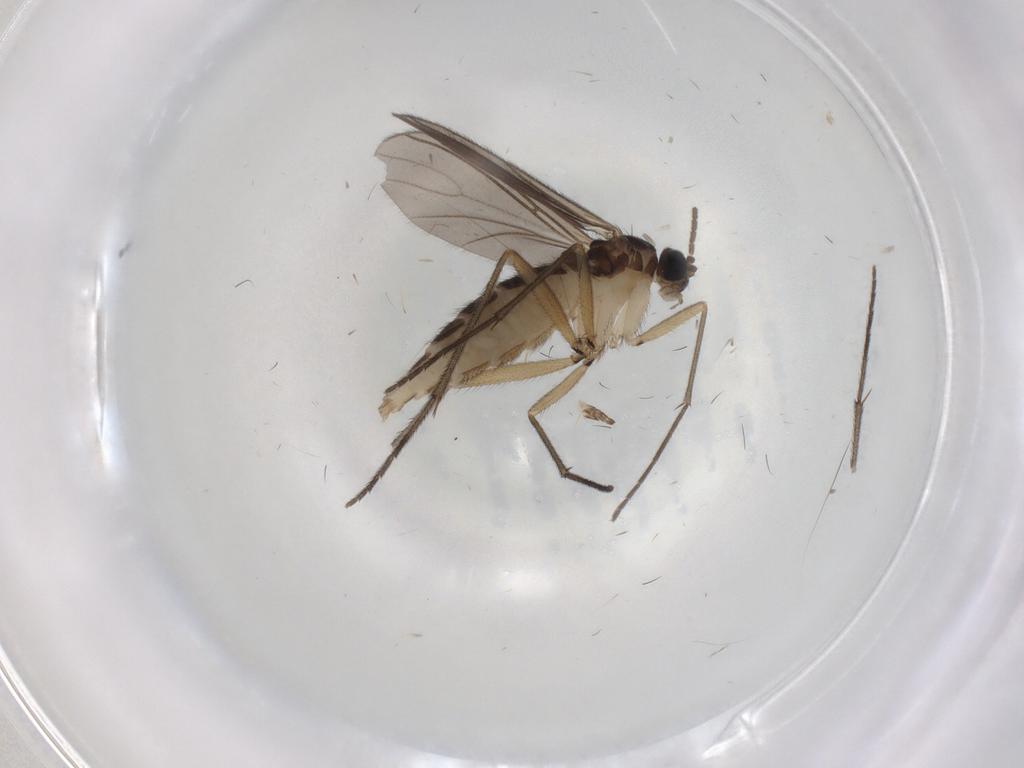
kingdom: Animalia
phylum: Arthropoda
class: Insecta
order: Diptera
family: Sciaridae
